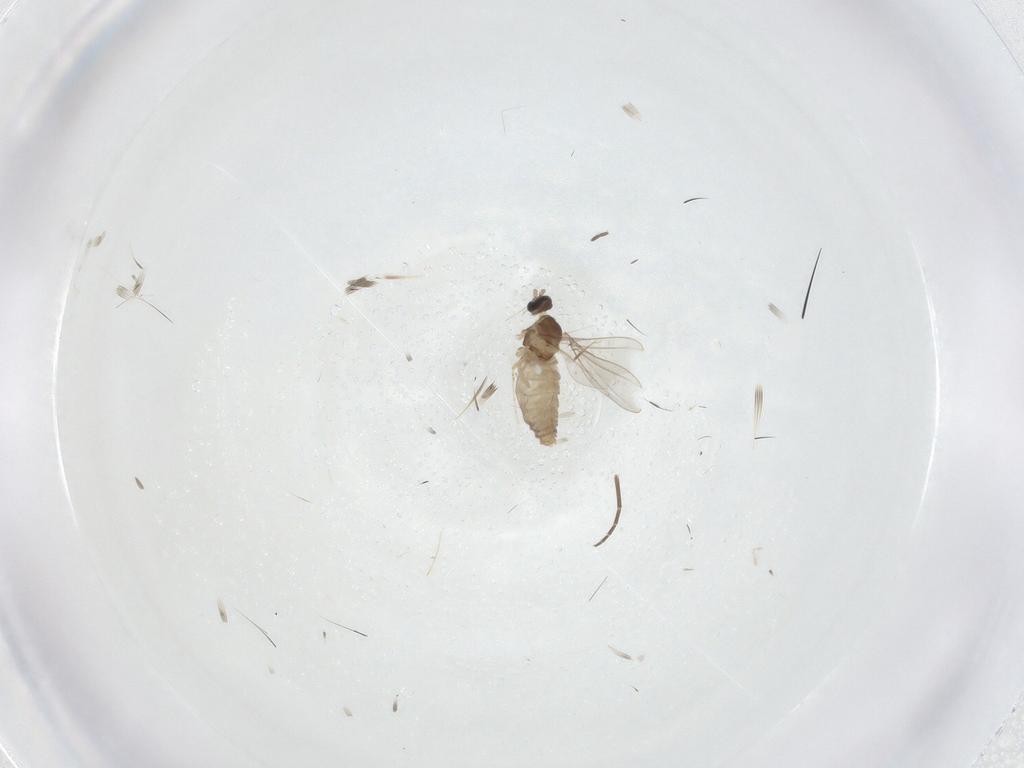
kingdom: Animalia
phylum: Arthropoda
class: Insecta
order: Diptera
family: Cecidomyiidae
